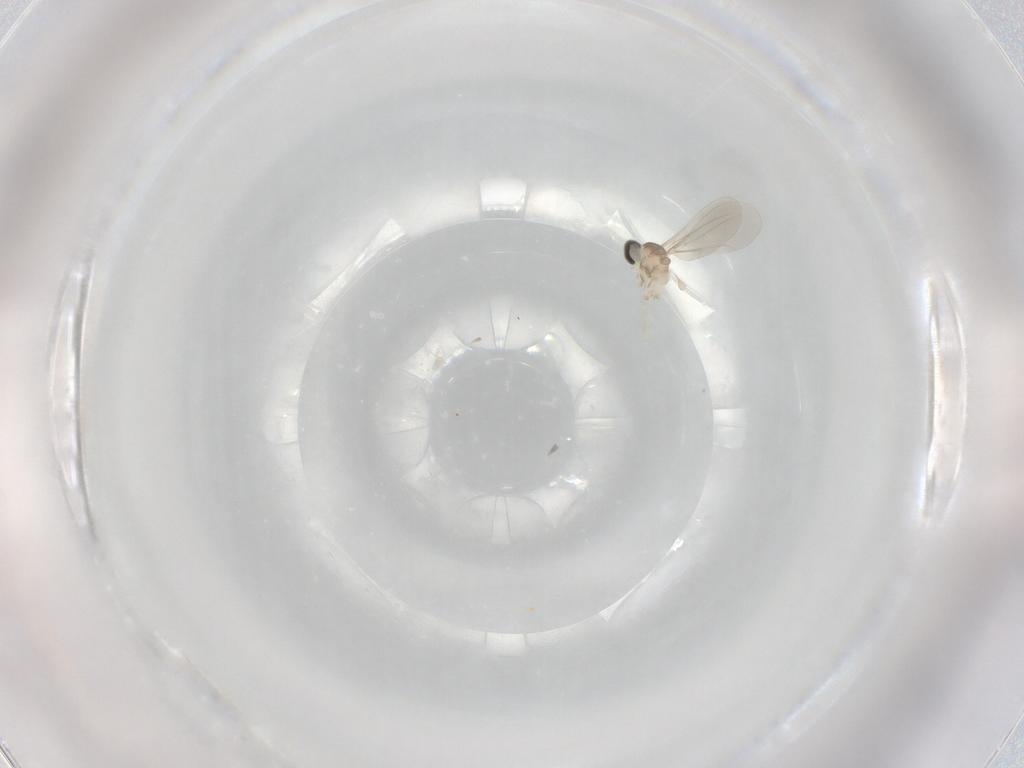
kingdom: Animalia
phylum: Arthropoda
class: Insecta
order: Diptera
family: Cecidomyiidae
